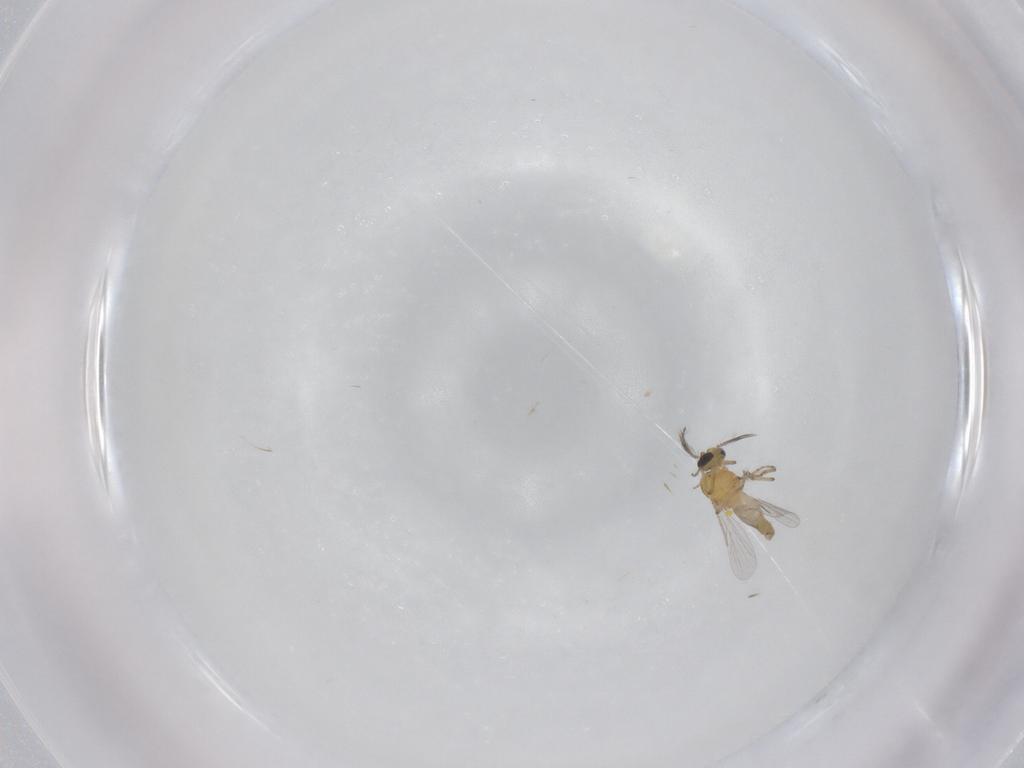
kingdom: Animalia
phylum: Arthropoda
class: Insecta
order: Diptera
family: Ceratopogonidae
